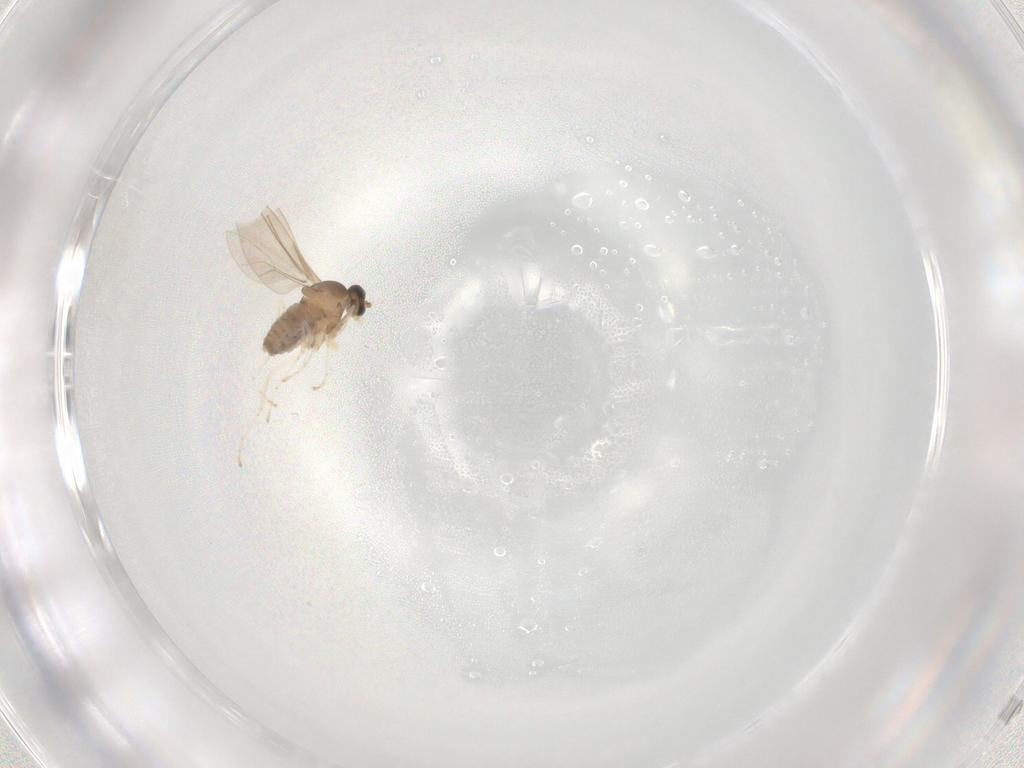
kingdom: Animalia
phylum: Arthropoda
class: Insecta
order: Diptera
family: Cecidomyiidae
